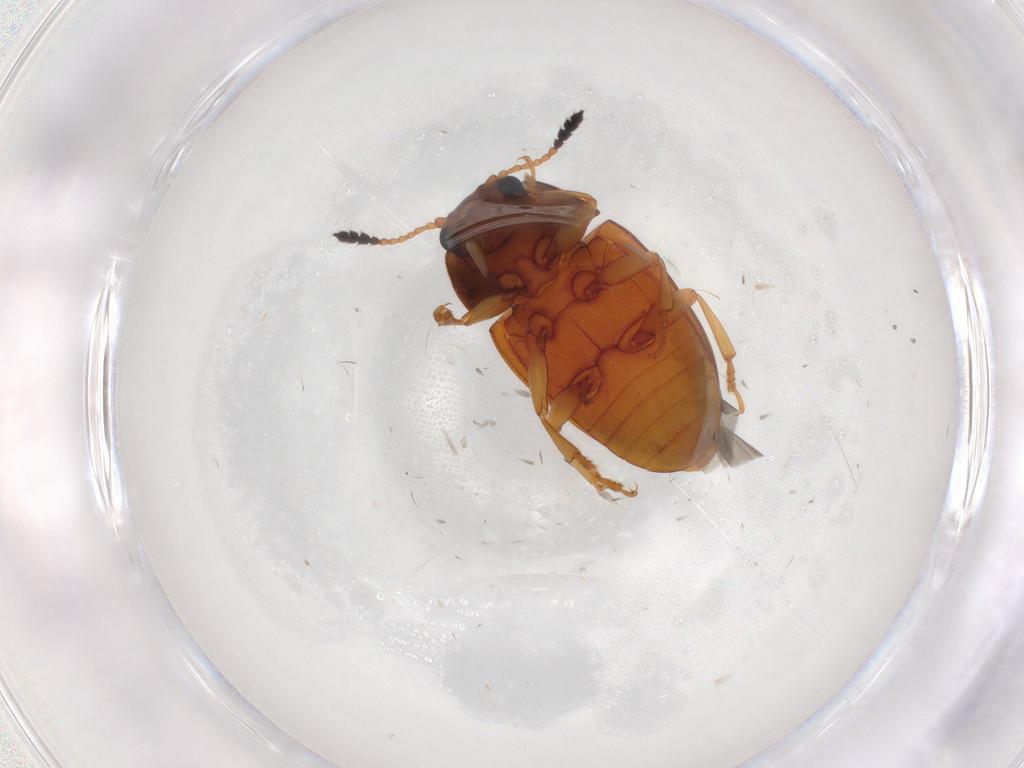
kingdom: Animalia
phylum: Arthropoda
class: Insecta
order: Coleoptera
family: Erotylidae
